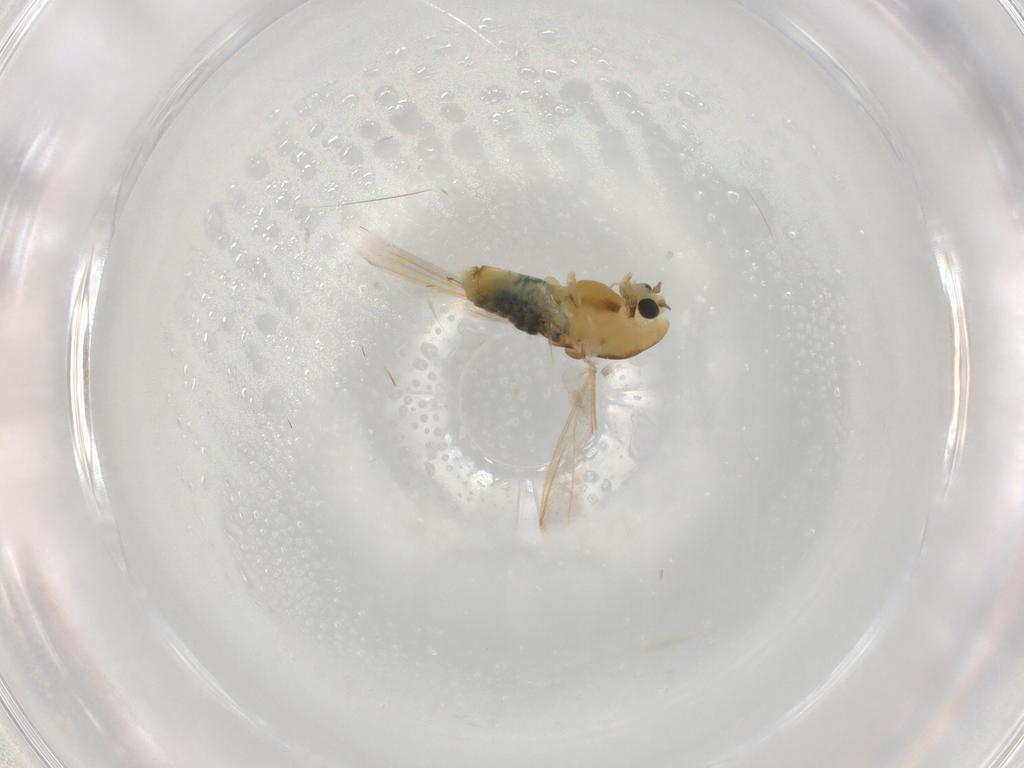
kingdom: Animalia
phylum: Arthropoda
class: Insecta
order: Diptera
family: Chironomidae
